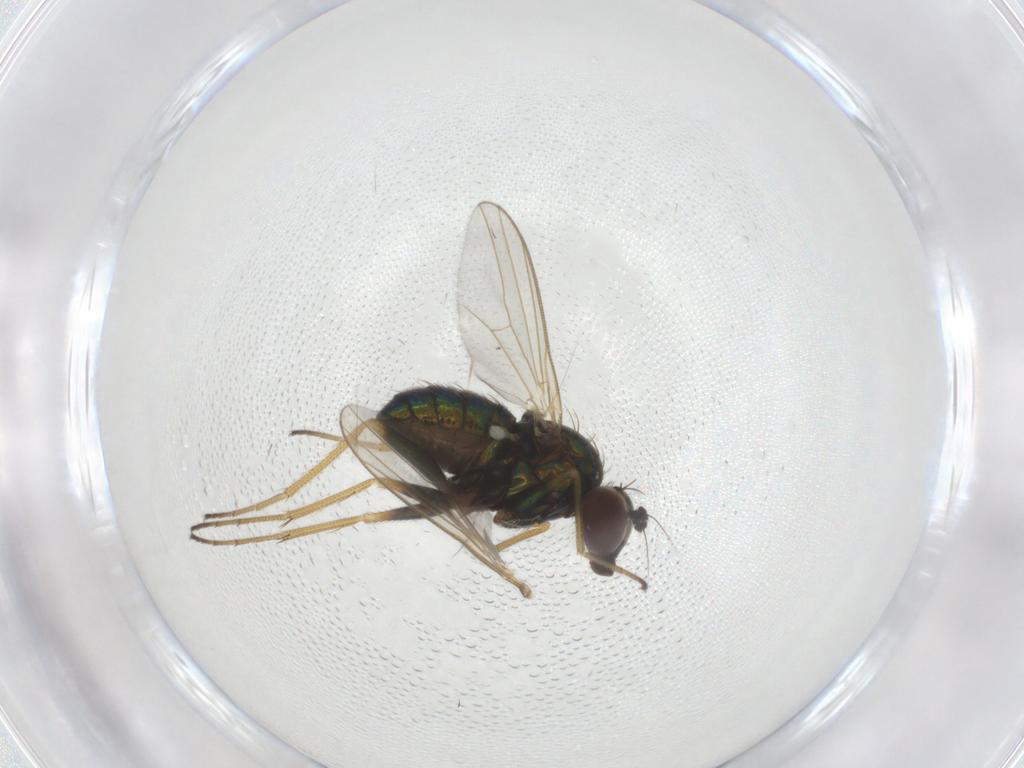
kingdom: Animalia
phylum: Arthropoda
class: Insecta
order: Diptera
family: Dolichopodidae
